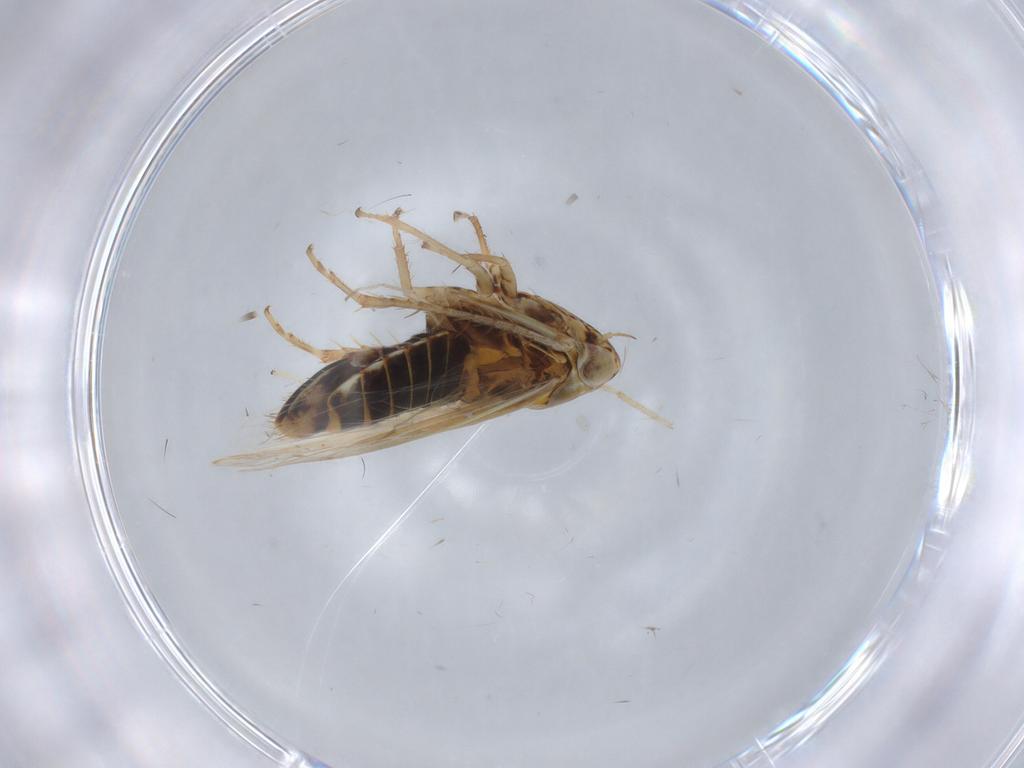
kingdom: Animalia
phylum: Arthropoda
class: Insecta
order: Hemiptera
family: Cicadellidae
